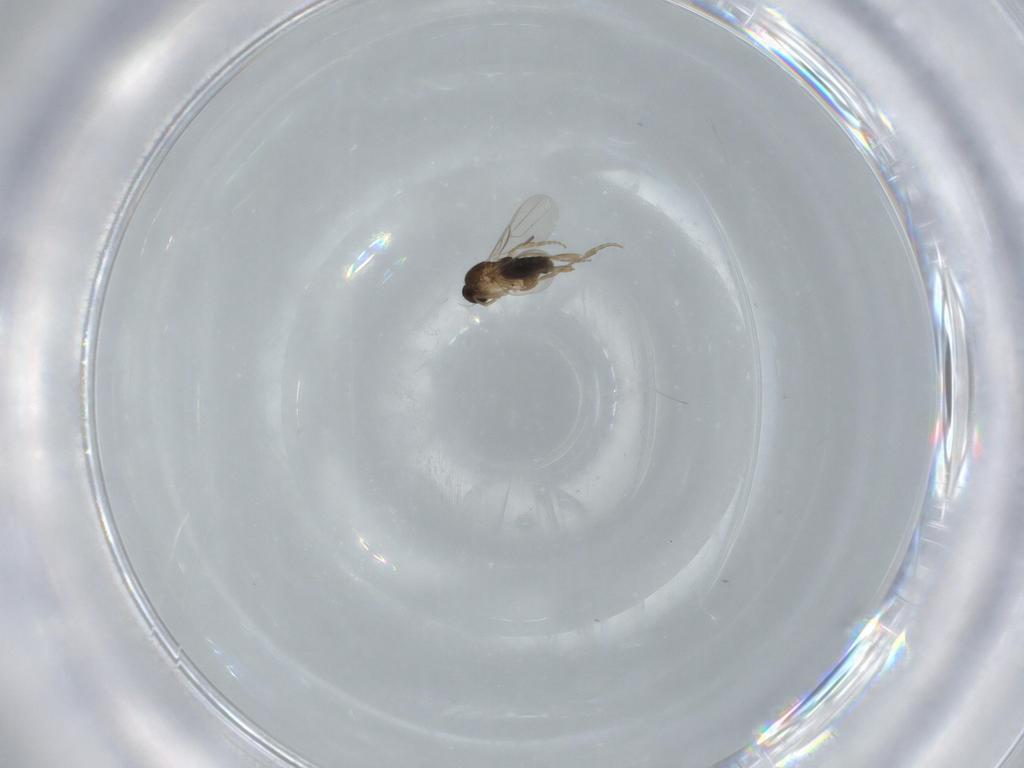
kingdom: Animalia
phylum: Arthropoda
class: Insecta
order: Diptera
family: Phoridae
